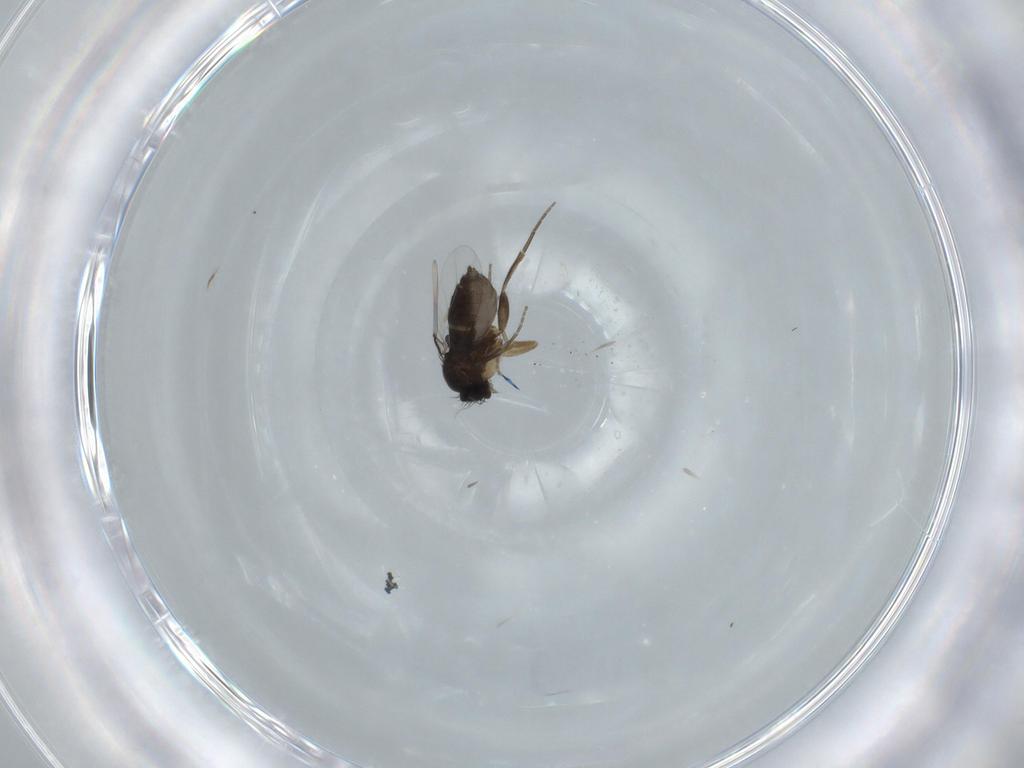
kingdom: Animalia
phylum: Arthropoda
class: Insecta
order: Diptera
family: Phoridae
